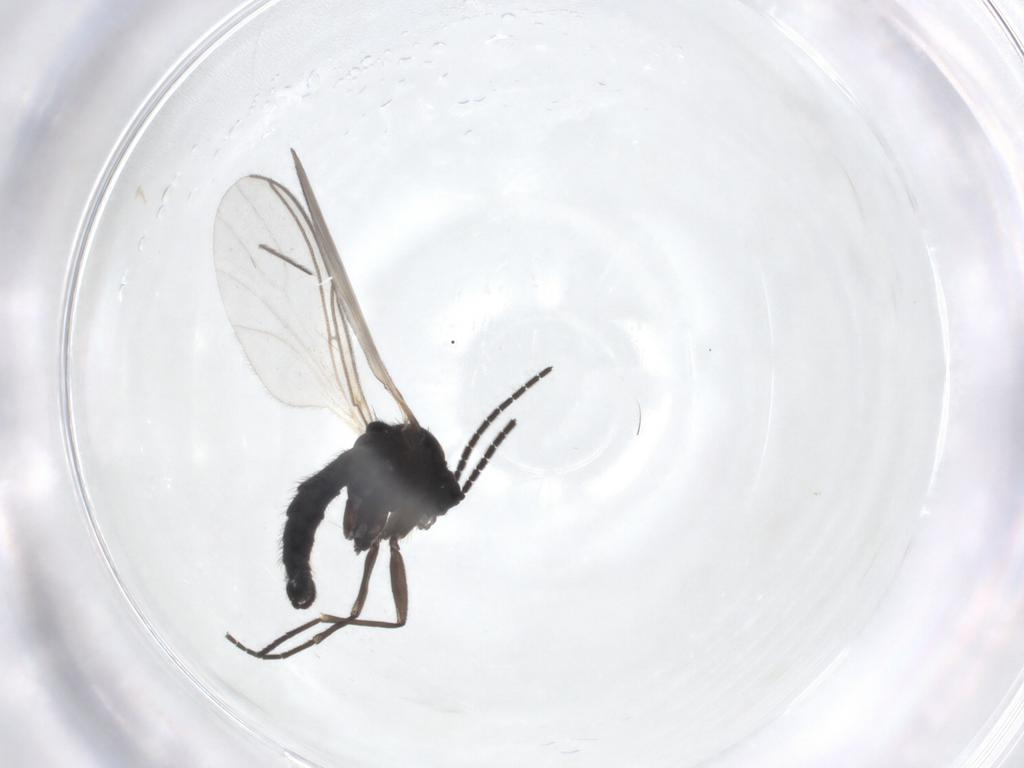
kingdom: Animalia
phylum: Arthropoda
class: Insecta
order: Diptera
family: Sciaridae
